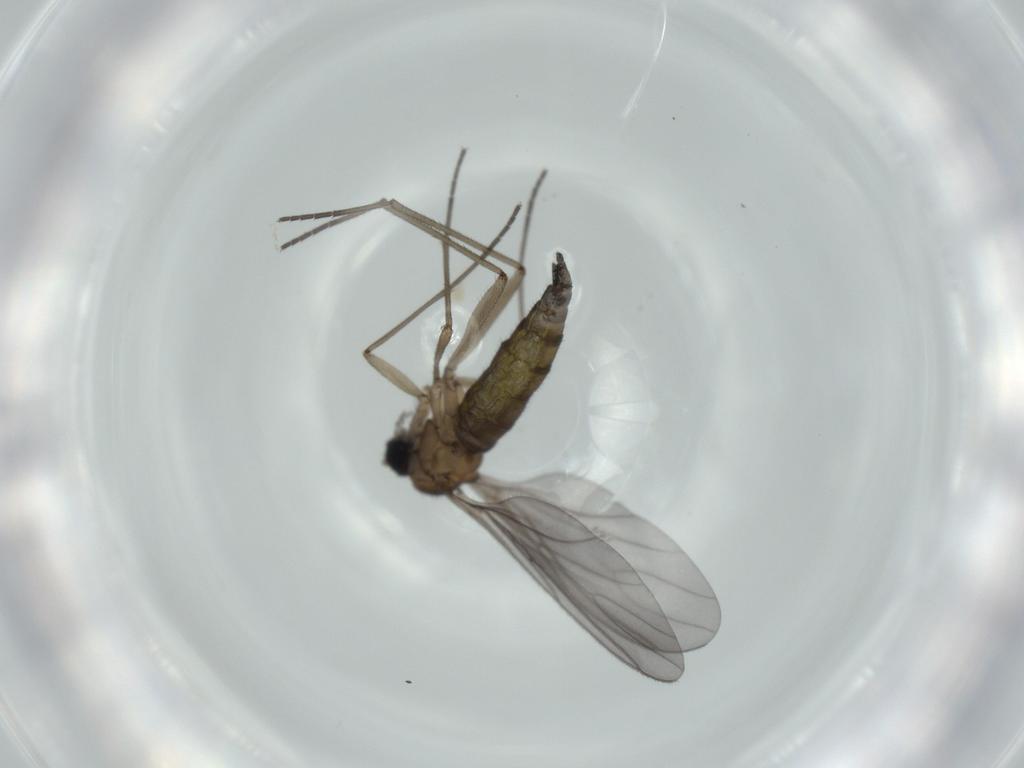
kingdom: Animalia
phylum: Arthropoda
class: Insecta
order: Diptera
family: Sciaridae
